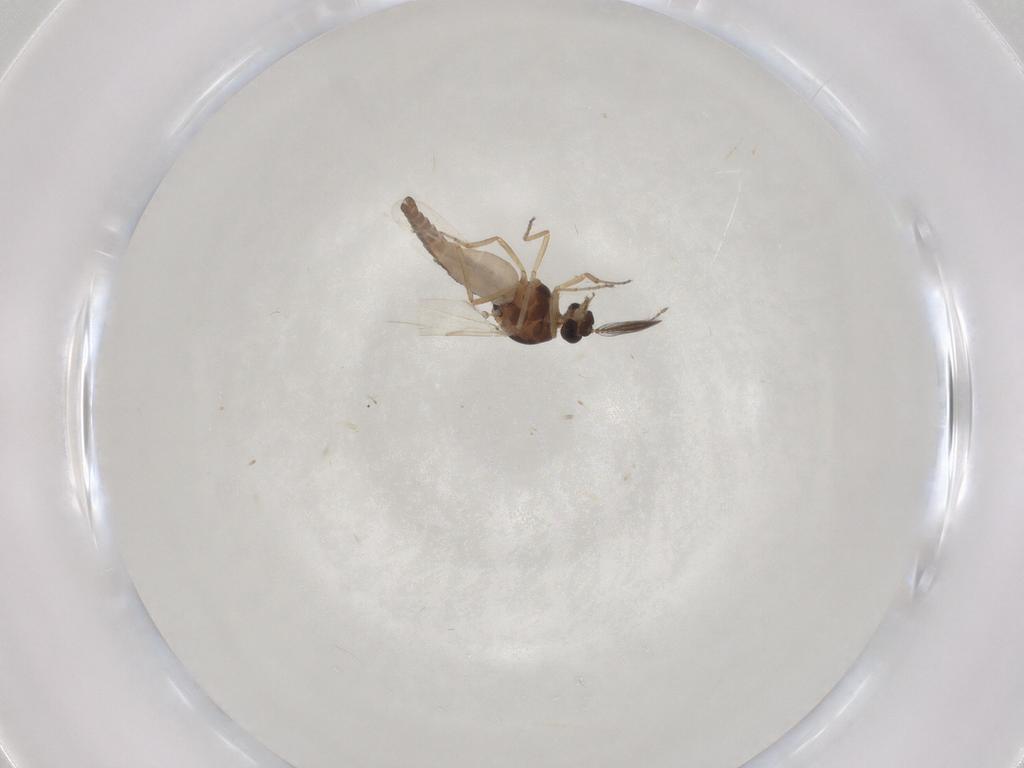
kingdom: Animalia
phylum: Arthropoda
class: Insecta
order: Diptera
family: Ceratopogonidae
